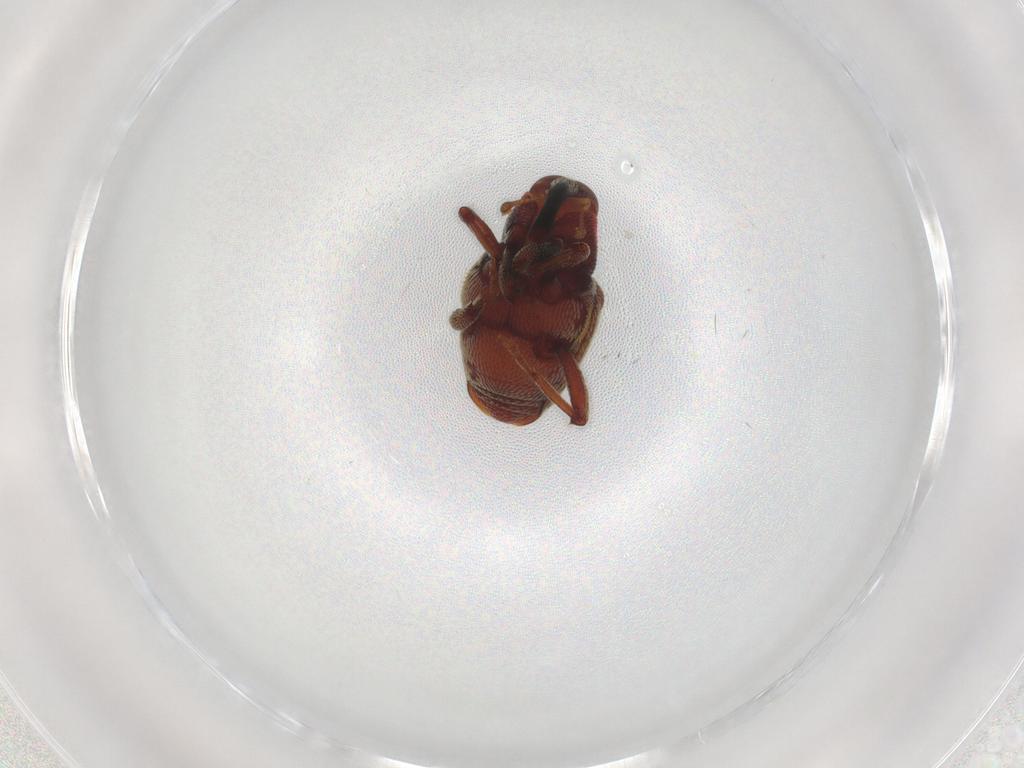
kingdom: Animalia
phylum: Arthropoda
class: Insecta
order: Coleoptera
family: Curculionidae
